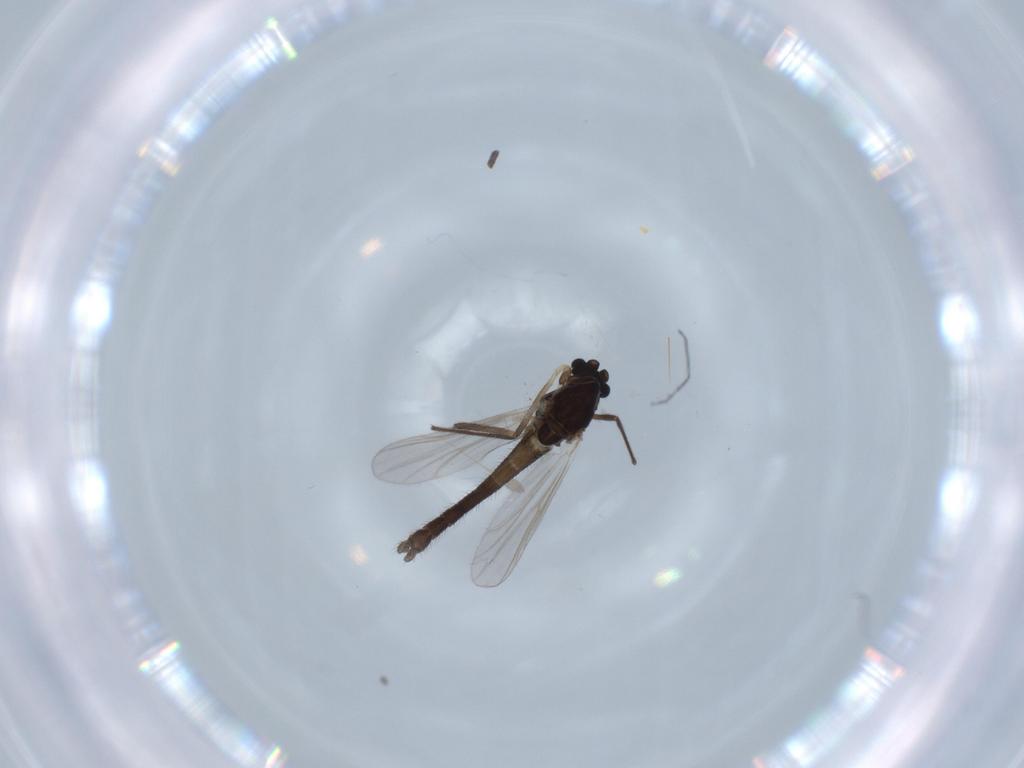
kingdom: Animalia
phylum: Arthropoda
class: Insecta
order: Diptera
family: Chironomidae
